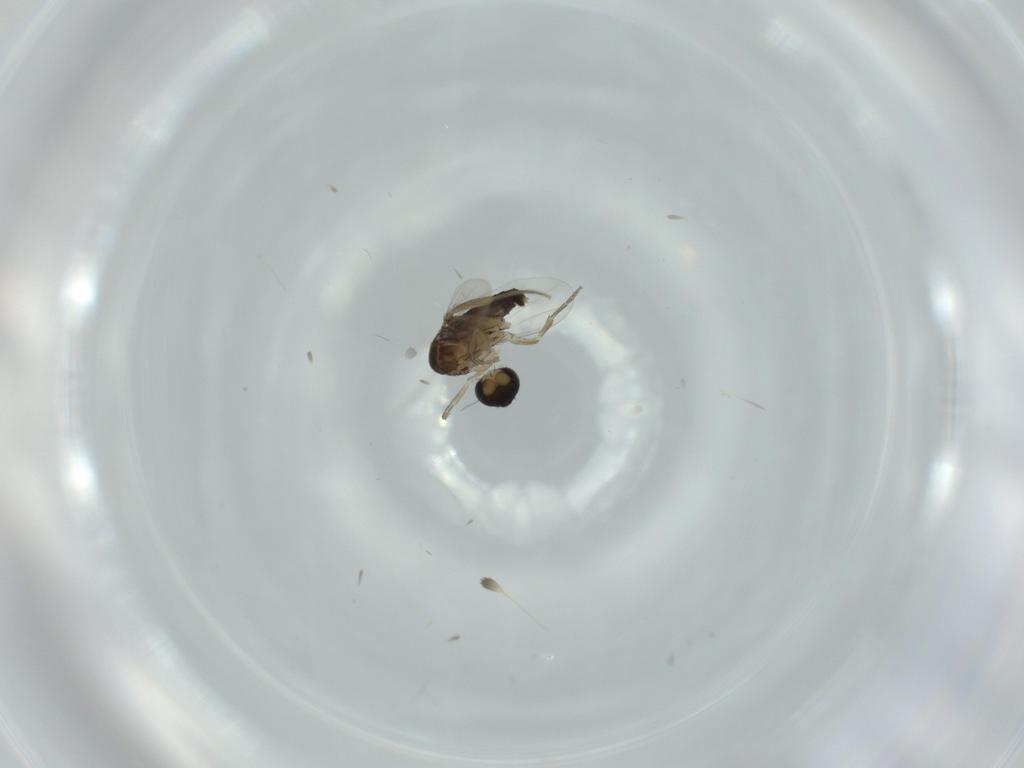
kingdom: Animalia
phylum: Arthropoda
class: Insecta
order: Diptera
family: Phoridae
